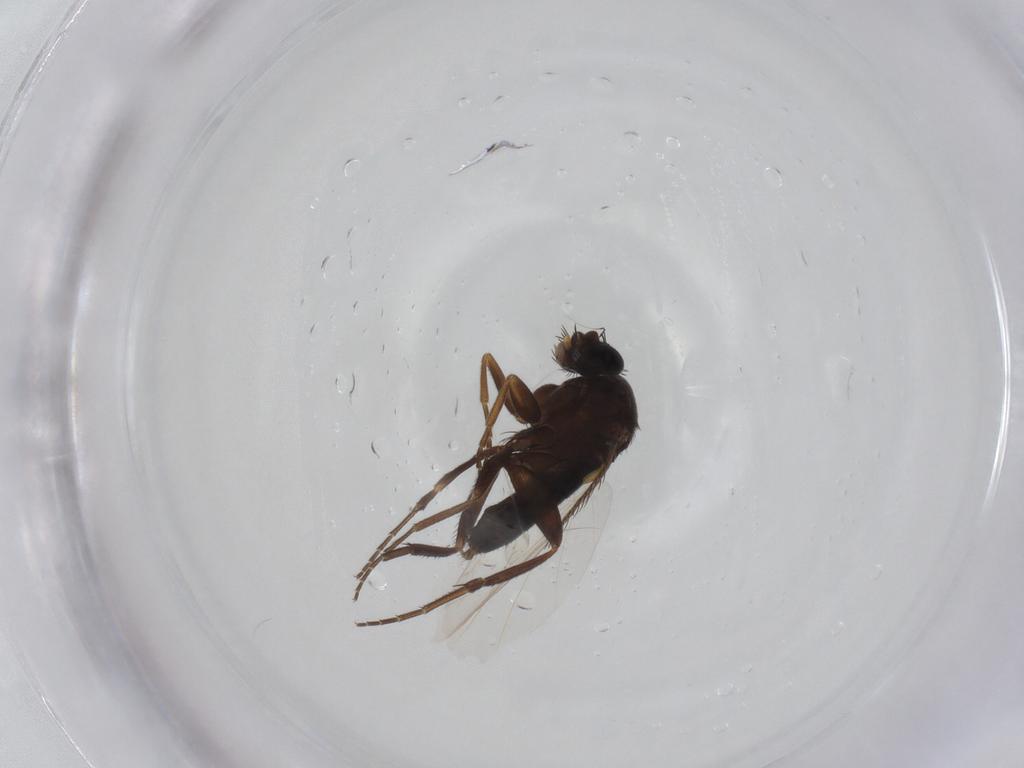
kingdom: Animalia
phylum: Arthropoda
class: Insecta
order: Diptera
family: Phoridae
